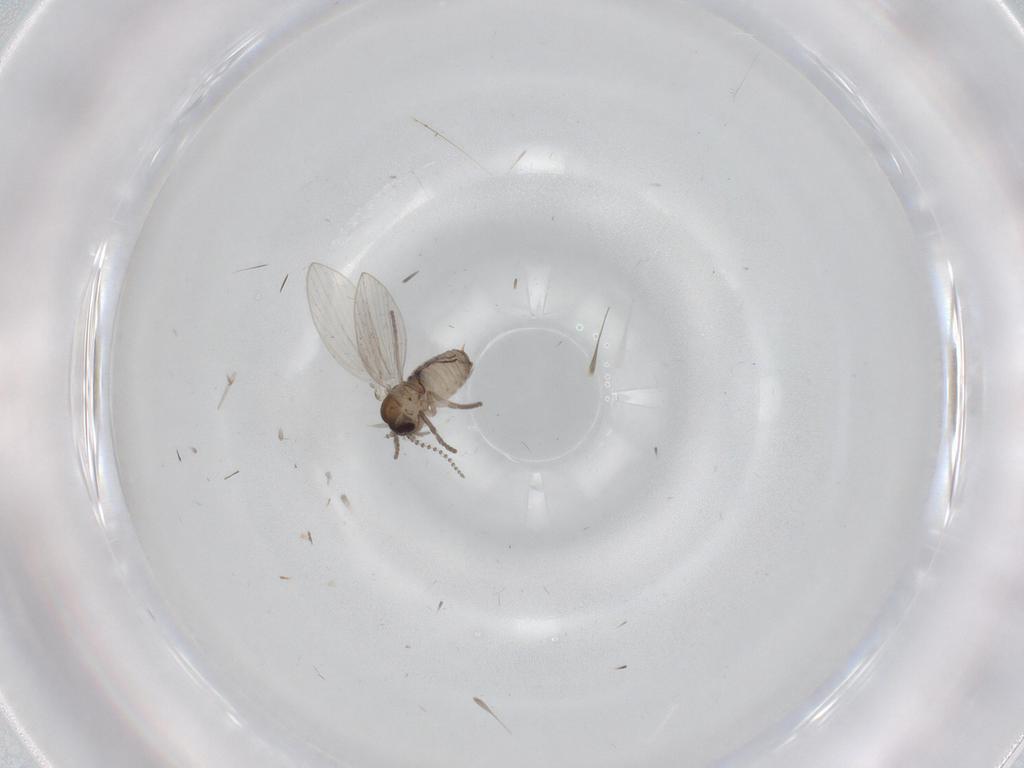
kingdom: Animalia
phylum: Arthropoda
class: Insecta
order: Diptera
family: Psychodidae
